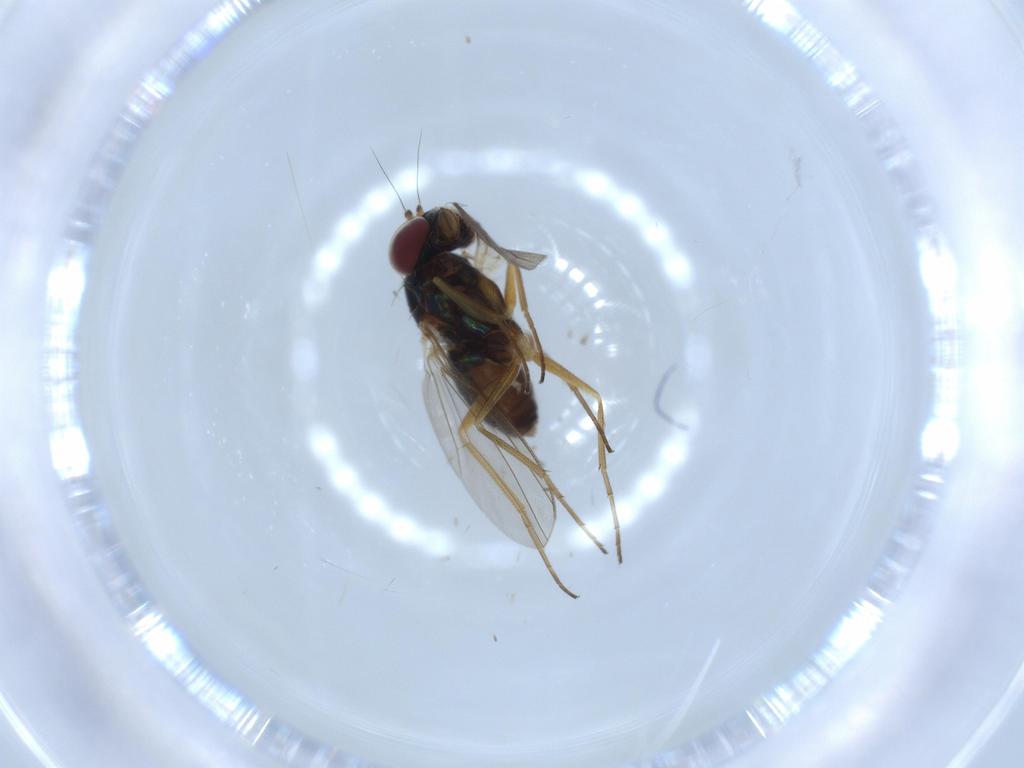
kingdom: Animalia
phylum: Arthropoda
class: Insecta
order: Diptera
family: Dolichopodidae
